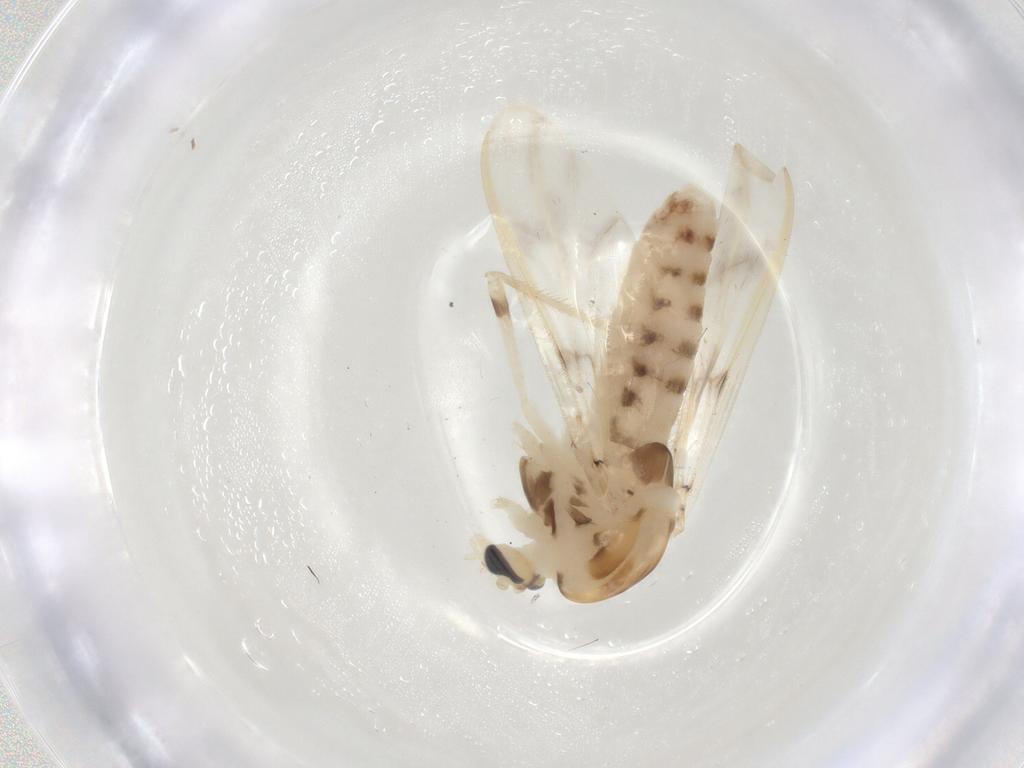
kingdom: Animalia
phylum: Arthropoda
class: Insecta
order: Diptera
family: Chironomidae
